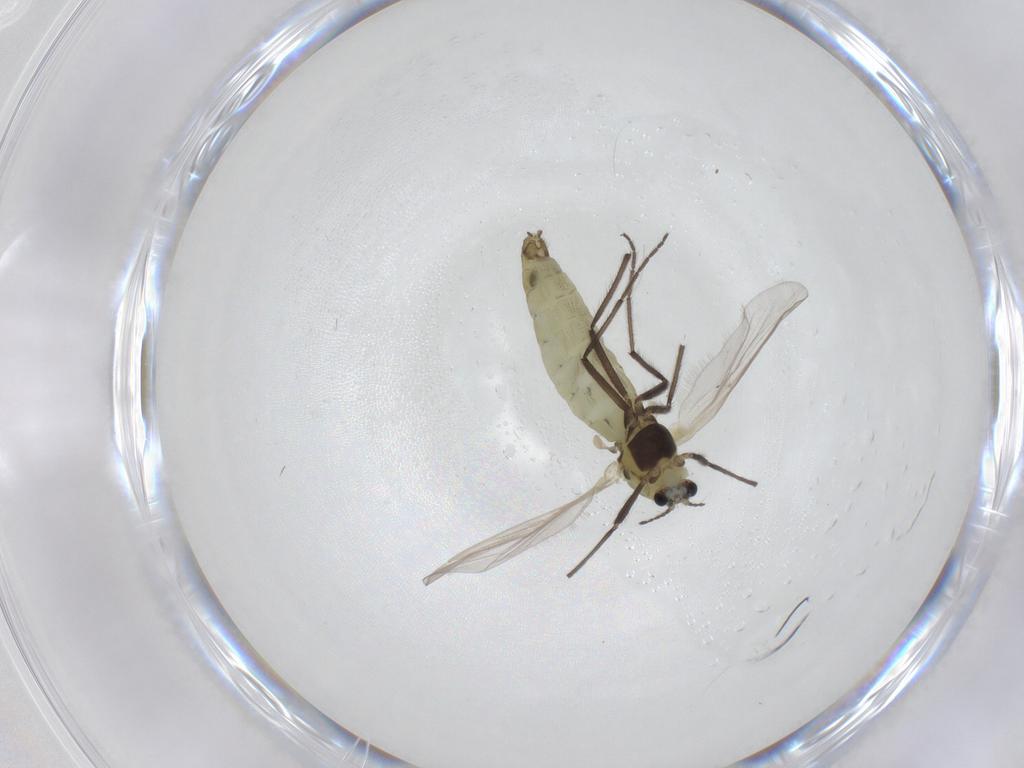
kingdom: Animalia
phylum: Arthropoda
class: Insecta
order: Diptera
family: Chironomidae
